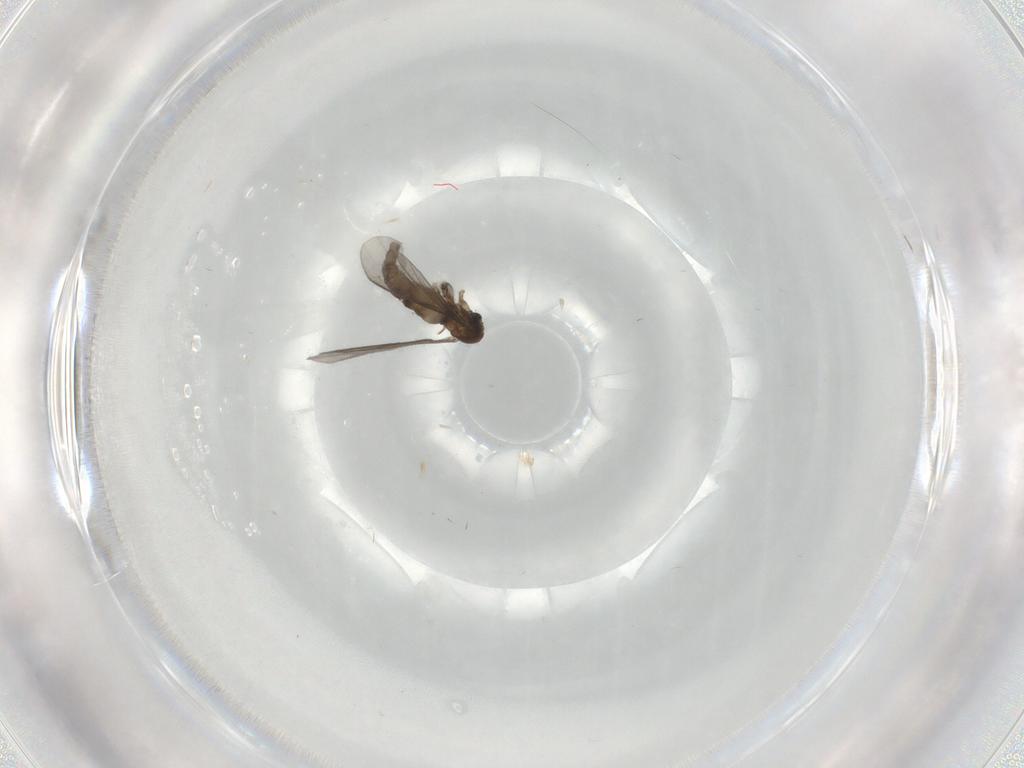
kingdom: Animalia
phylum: Arthropoda
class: Insecta
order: Diptera
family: Sciaridae
